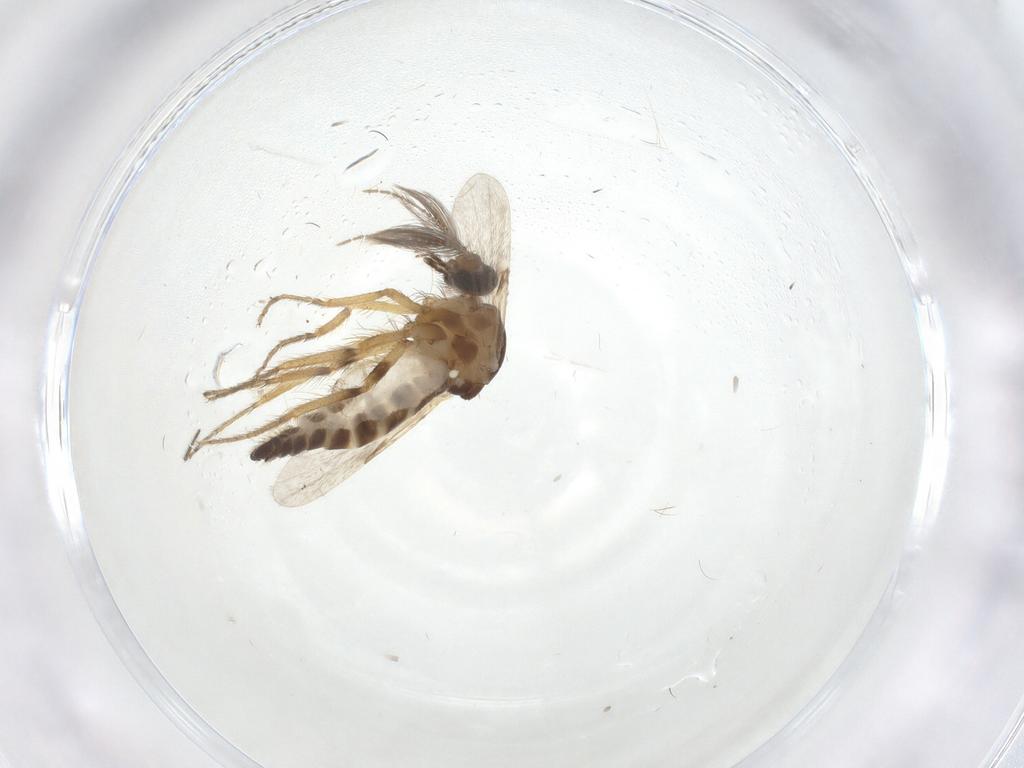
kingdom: Animalia
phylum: Arthropoda
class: Insecta
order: Diptera
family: Ceratopogonidae
